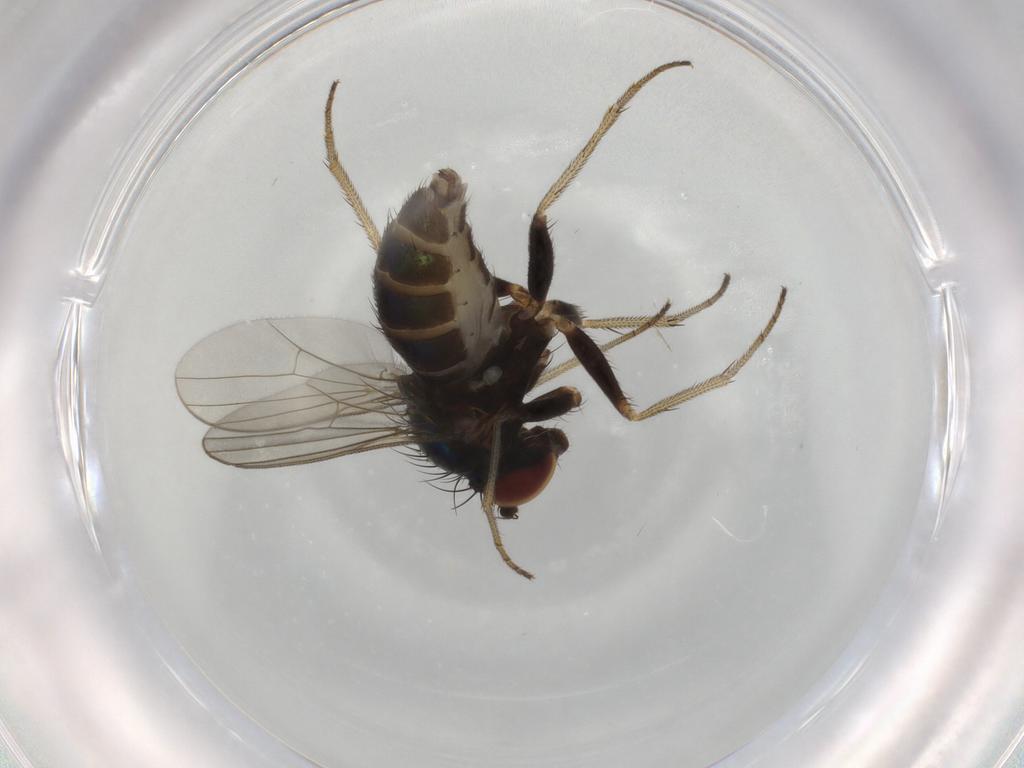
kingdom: Animalia
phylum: Arthropoda
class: Insecta
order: Diptera
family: Dolichopodidae
